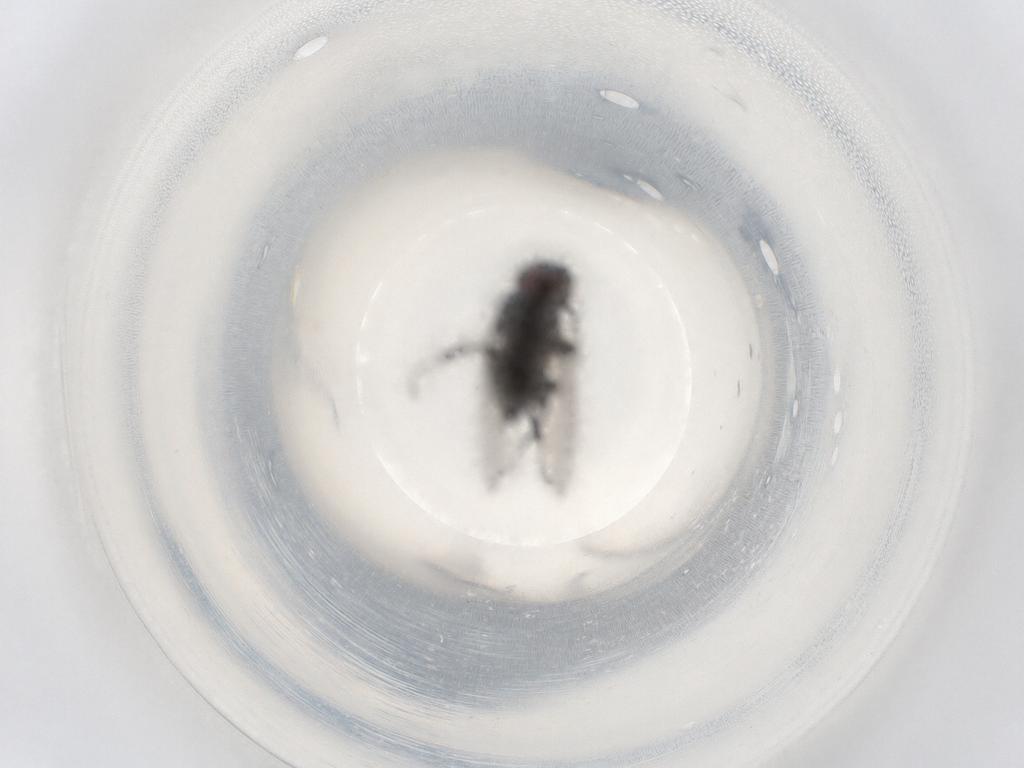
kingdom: Animalia
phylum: Arthropoda
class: Insecta
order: Diptera
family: Milichiidae
